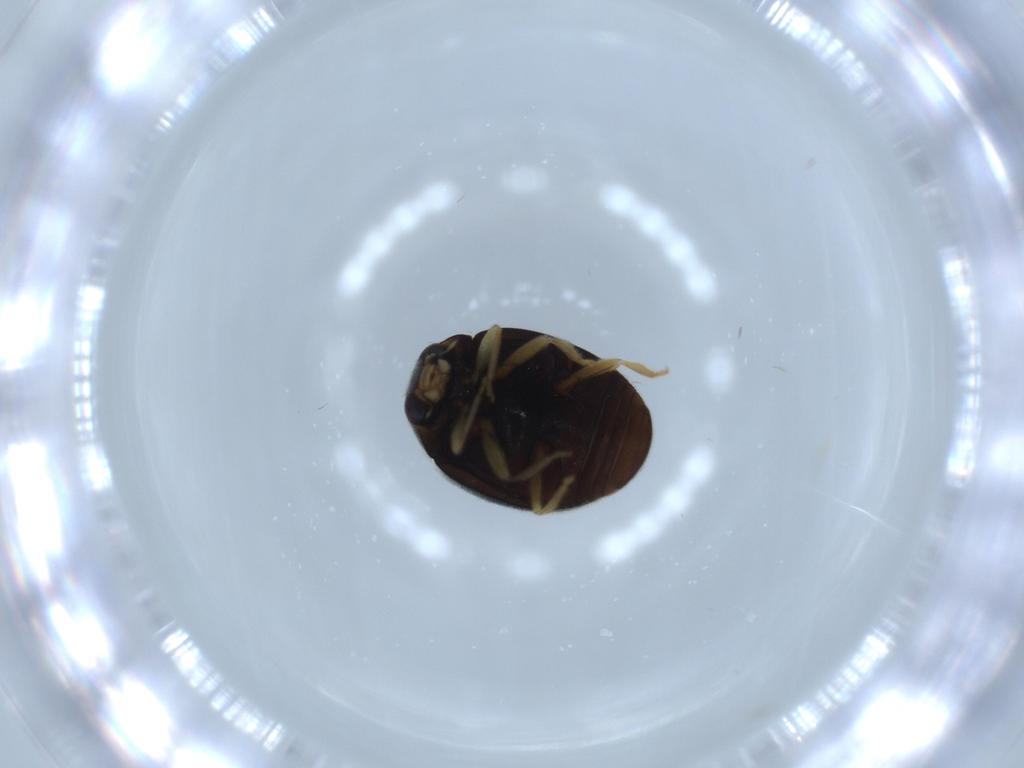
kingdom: Animalia
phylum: Arthropoda
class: Insecta
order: Coleoptera
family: Coccinellidae
